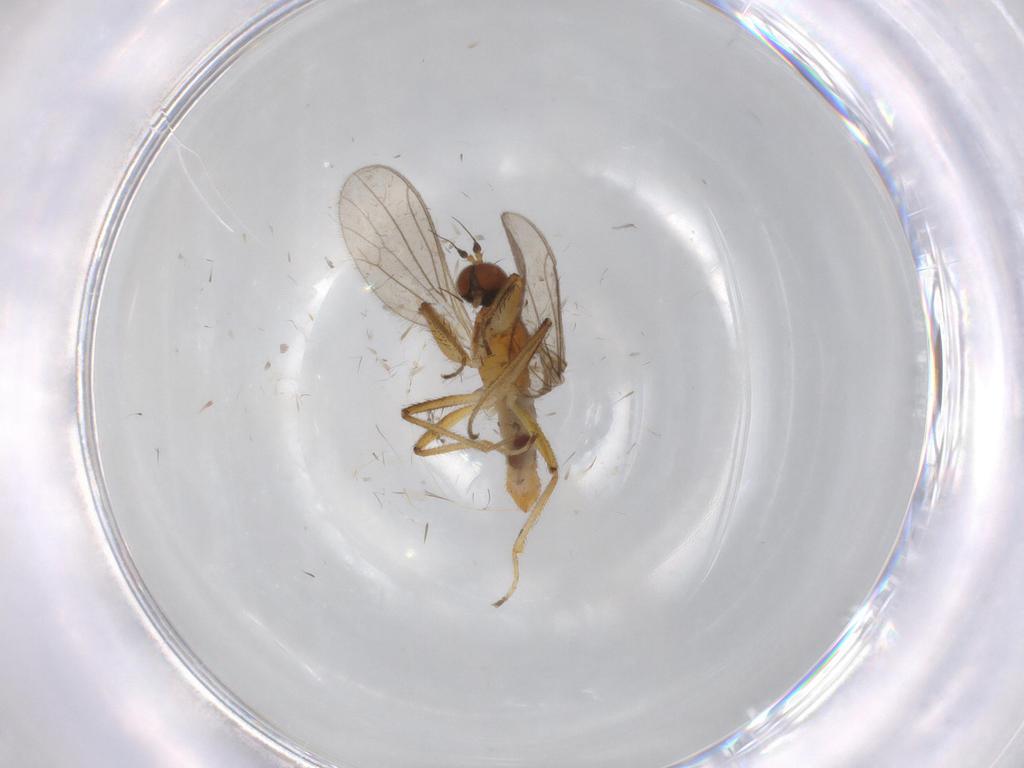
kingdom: Animalia
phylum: Arthropoda
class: Insecta
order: Diptera
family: Empididae
